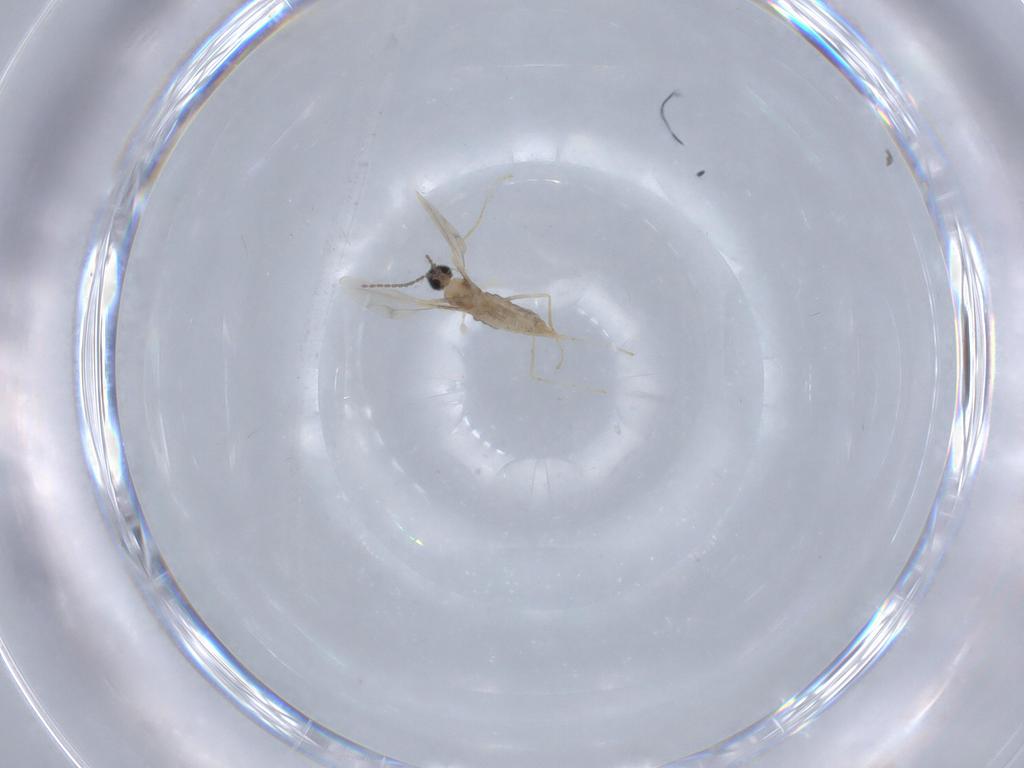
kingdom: Animalia
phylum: Arthropoda
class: Insecta
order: Diptera
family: Cecidomyiidae
